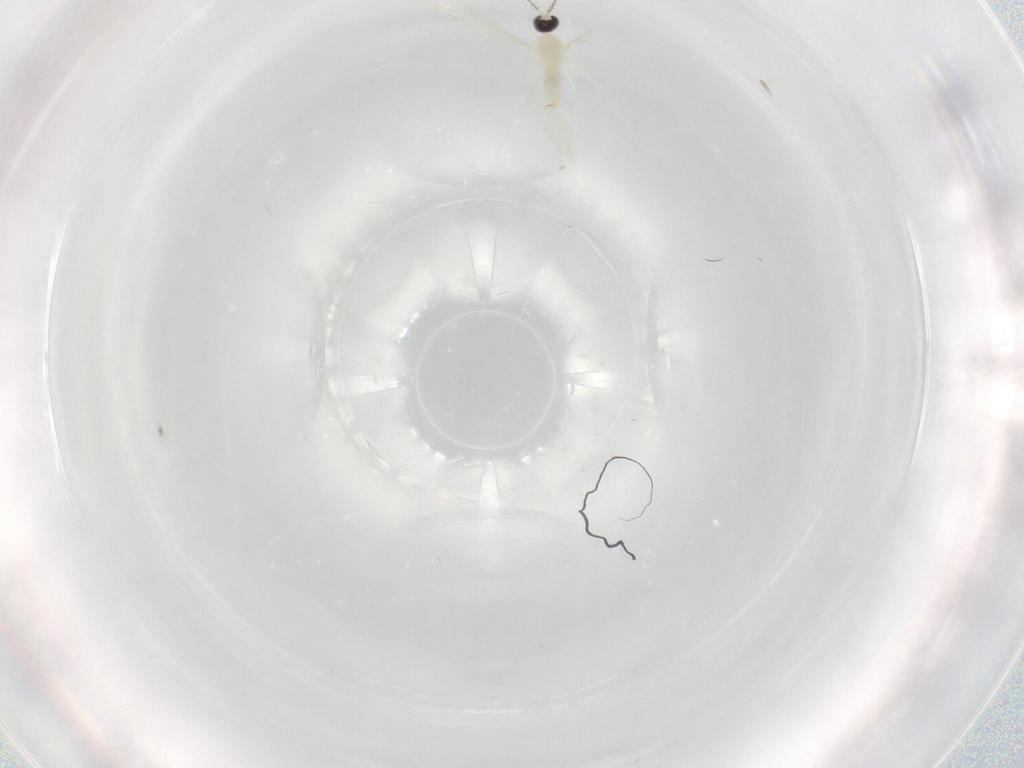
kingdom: Animalia
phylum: Arthropoda
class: Insecta
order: Diptera
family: Cecidomyiidae
